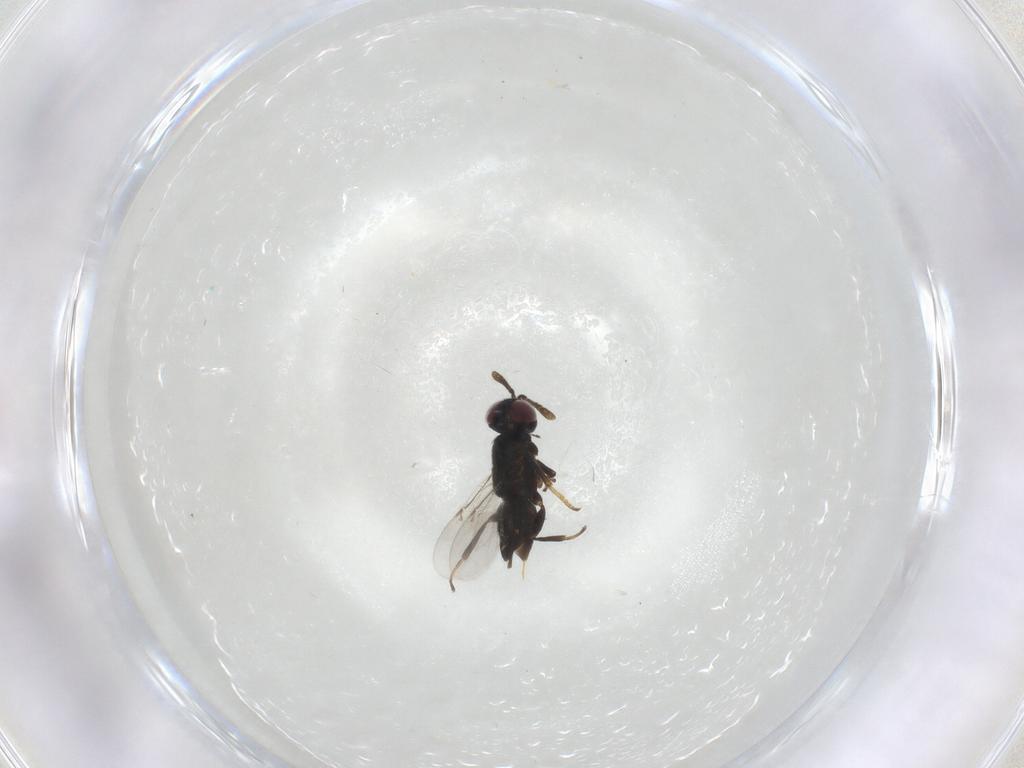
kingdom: Animalia
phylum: Arthropoda
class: Insecta
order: Hymenoptera
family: Encyrtidae
